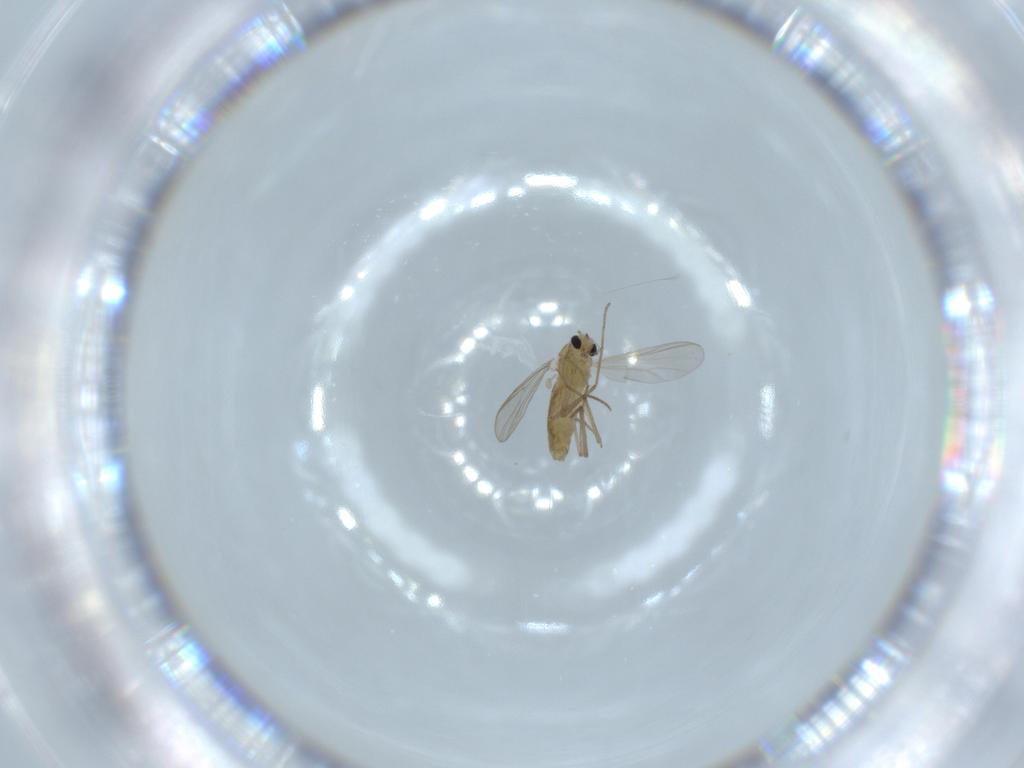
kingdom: Animalia
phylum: Arthropoda
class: Insecta
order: Diptera
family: Chironomidae
